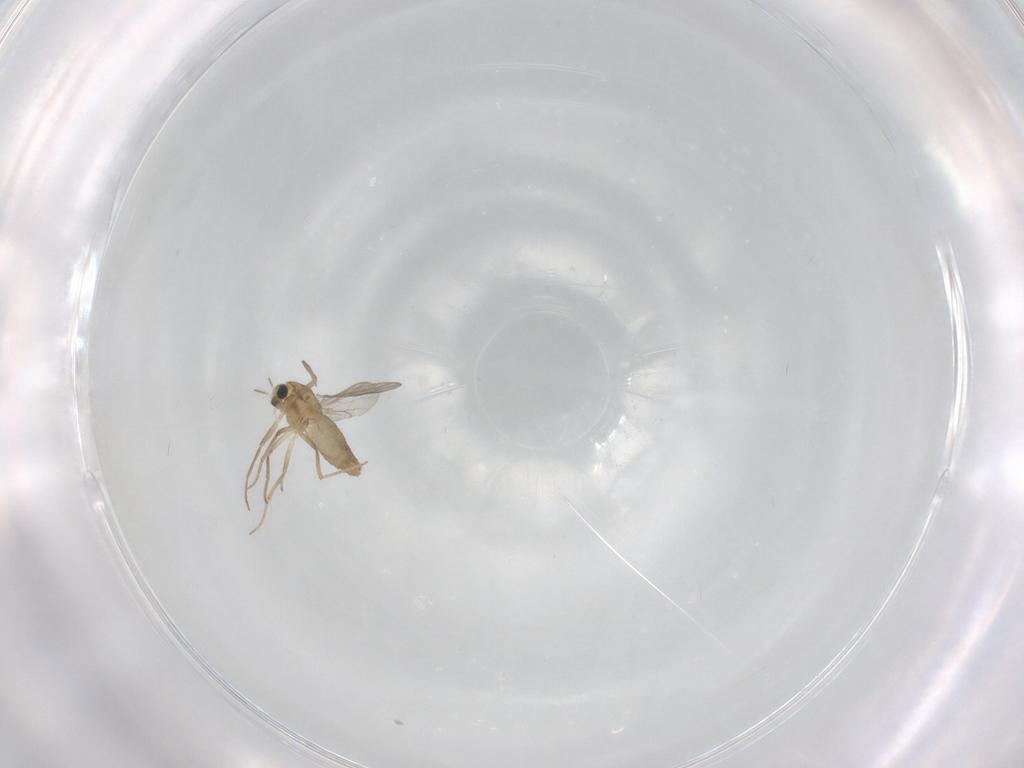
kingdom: Animalia
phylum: Arthropoda
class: Insecta
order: Diptera
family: Chironomidae
